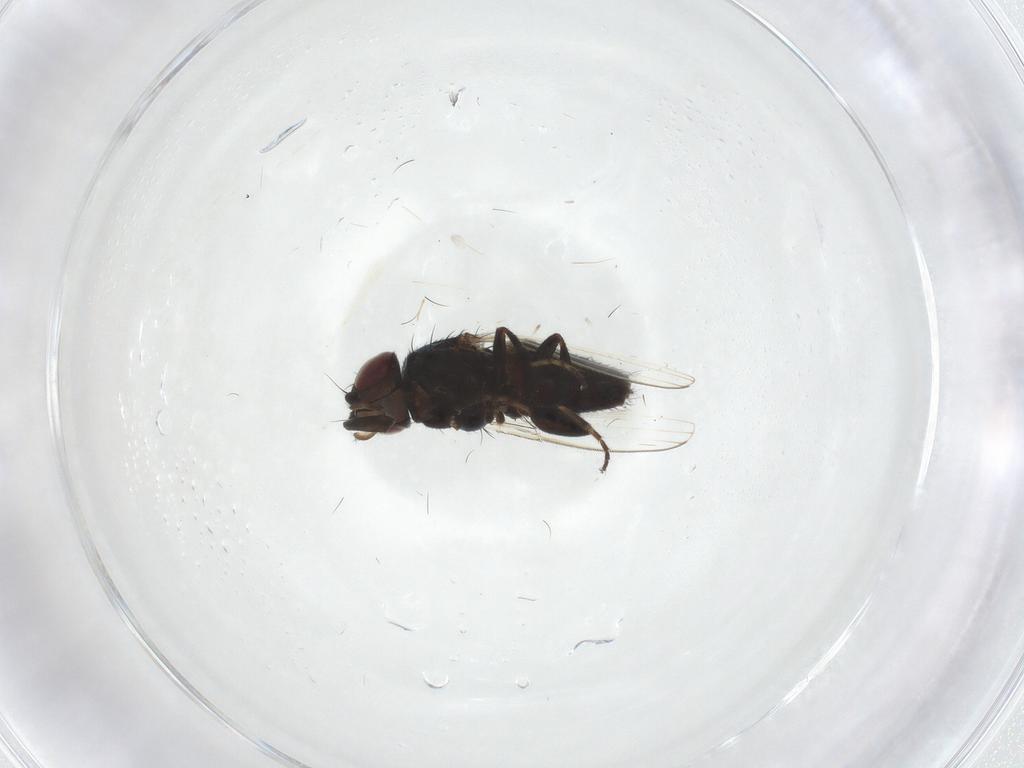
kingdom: Animalia
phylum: Arthropoda
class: Insecta
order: Diptera
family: Milichiidae
